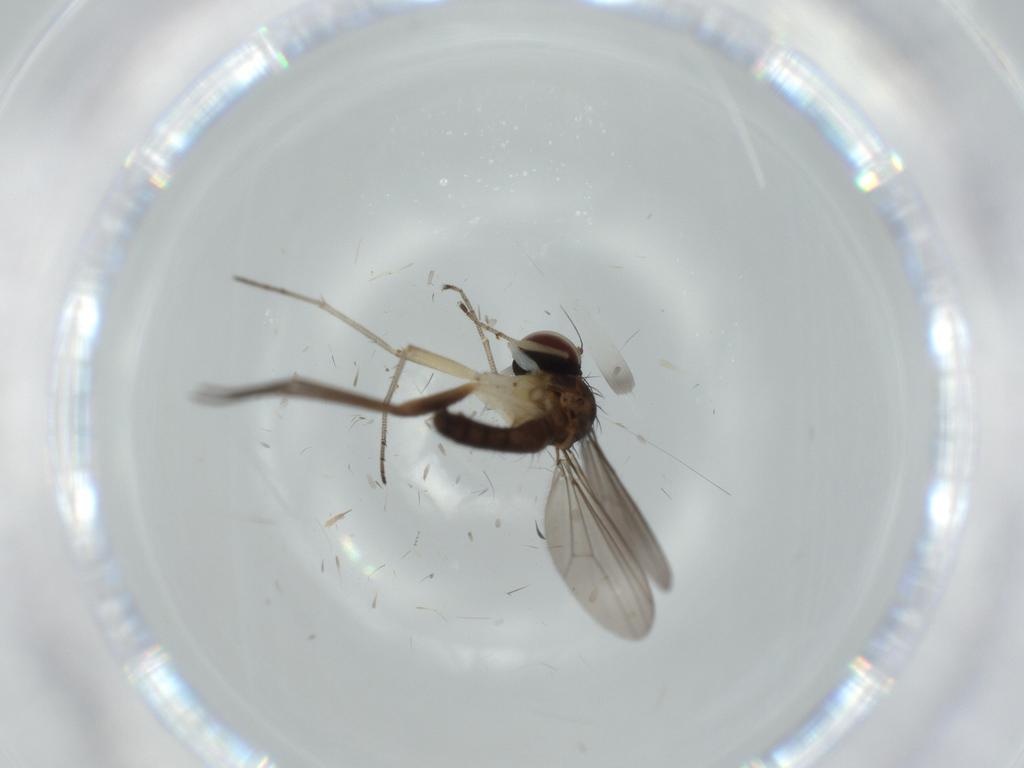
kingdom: Animalia
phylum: Arthropoda
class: Insecta
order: Diptera
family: Dolichopodidae
